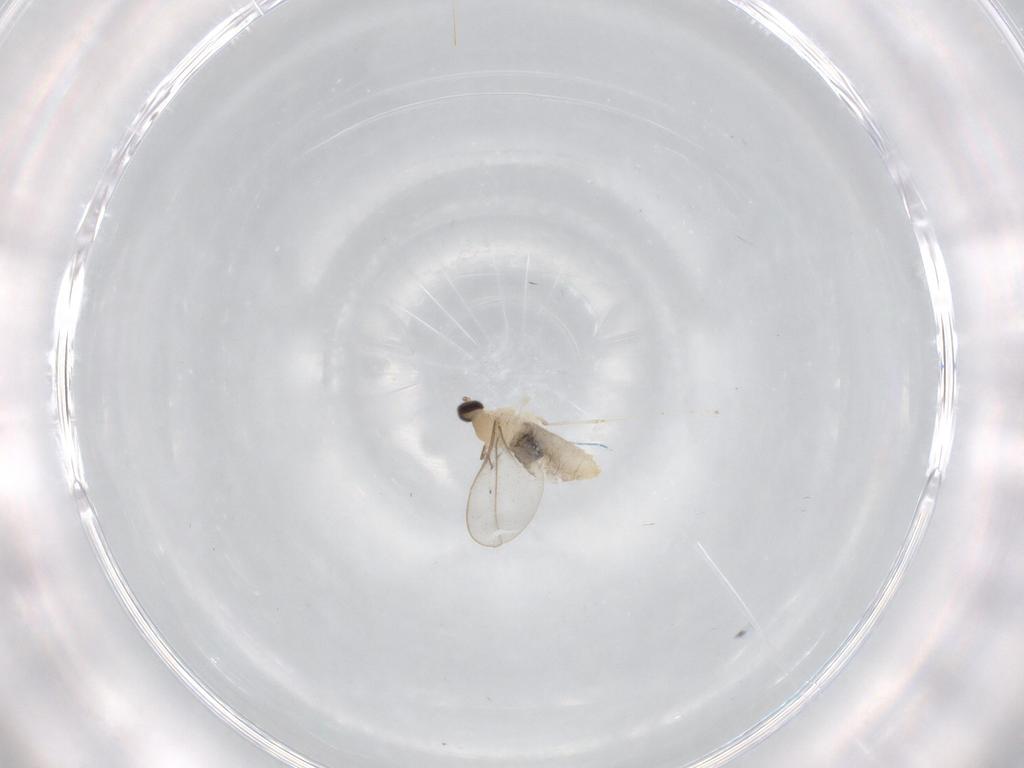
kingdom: Animalia
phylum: Arthropoda
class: Insecta
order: Diptera
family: Cecidomyiidae
